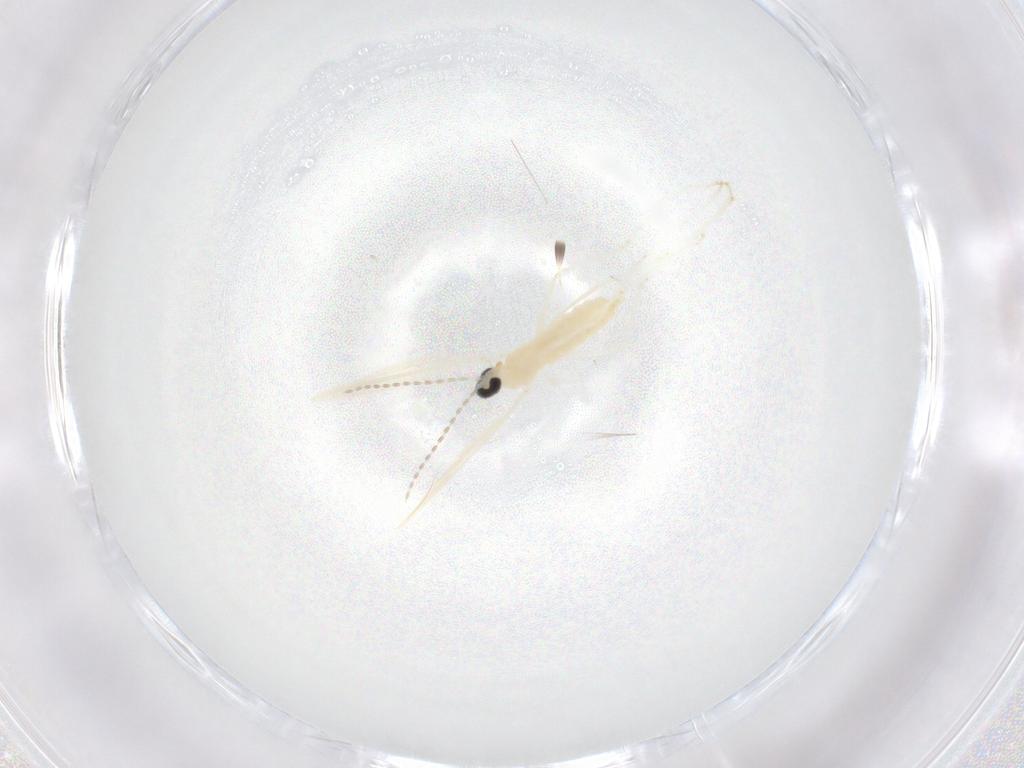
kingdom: Animalia
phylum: Arthropoda
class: Insecta
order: Diptera
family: Cecidomyiidae
